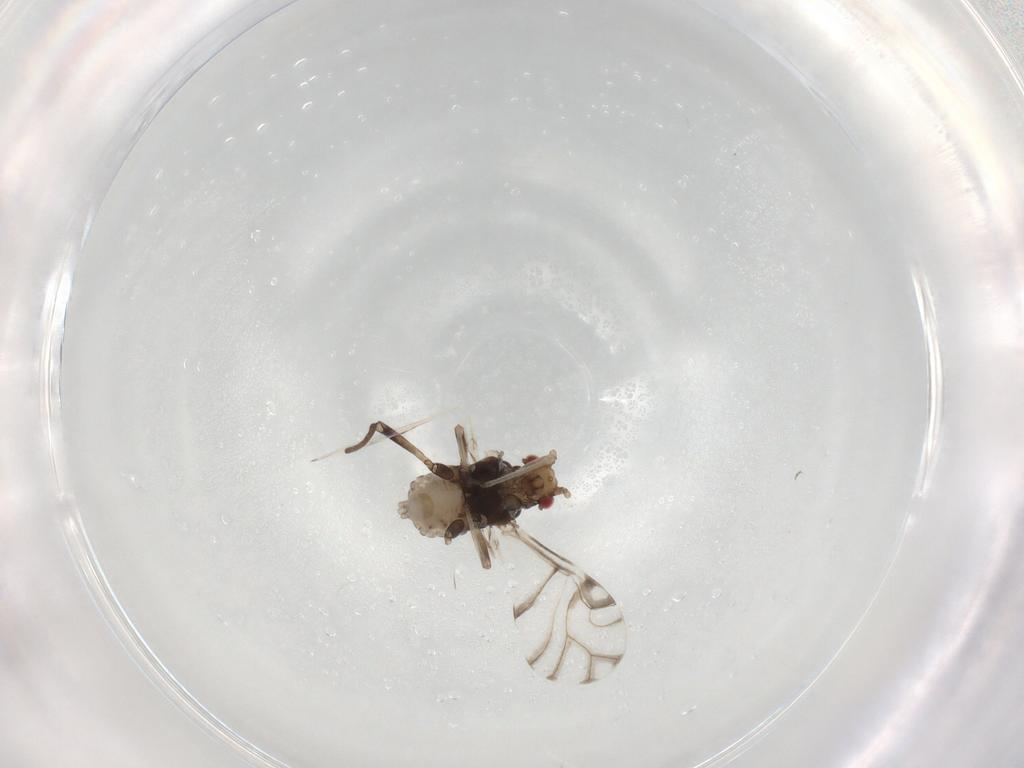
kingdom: Animalia
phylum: Arthropoda
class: Insecta
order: Hemiptera
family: Aphididae
